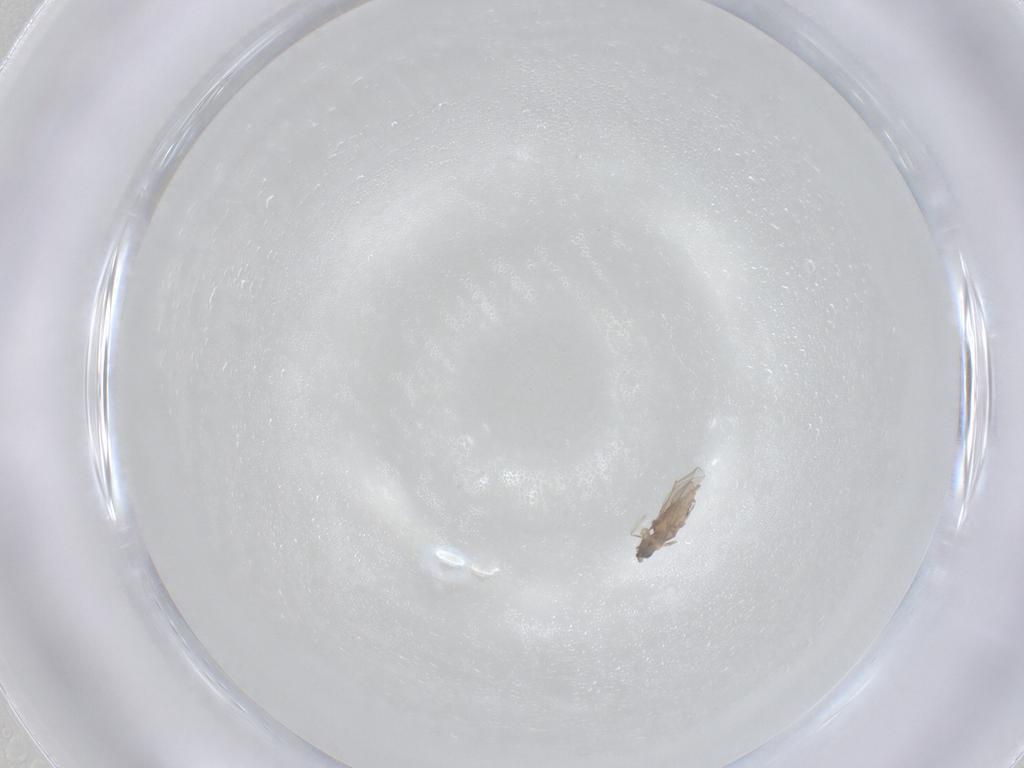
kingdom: Animalia
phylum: Arthropoda
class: Insecta
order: Diptera
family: Cecidomyiidae
